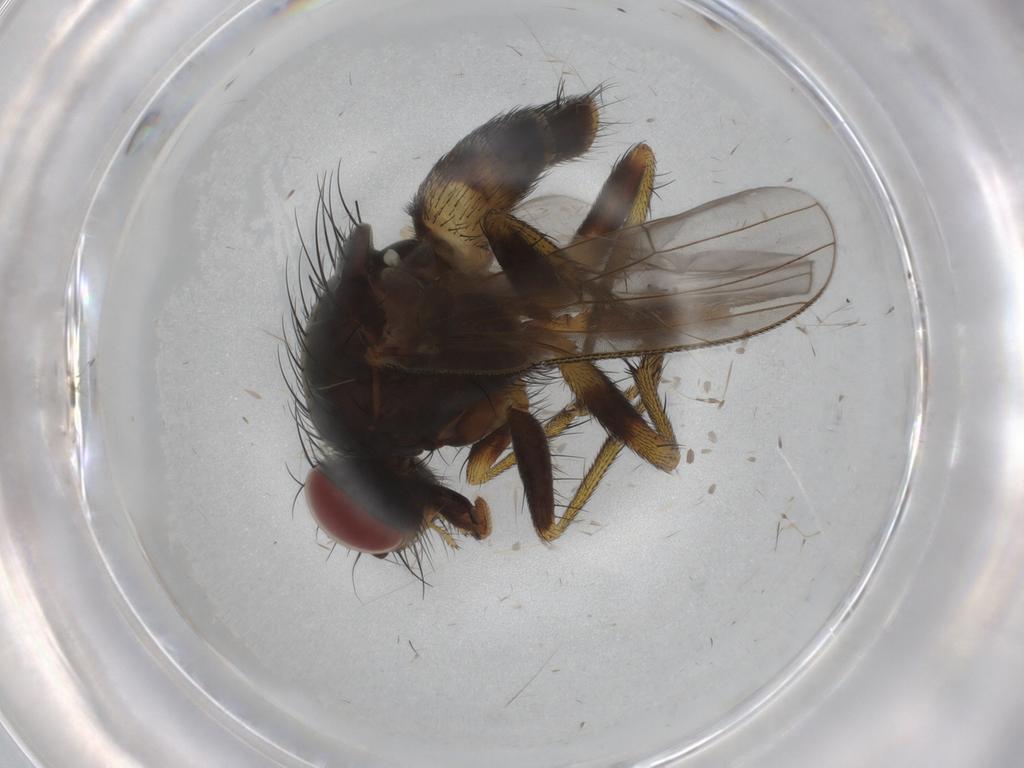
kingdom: Animalia
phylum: Arthropoda
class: Insecta
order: Diptera
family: Muscidae
